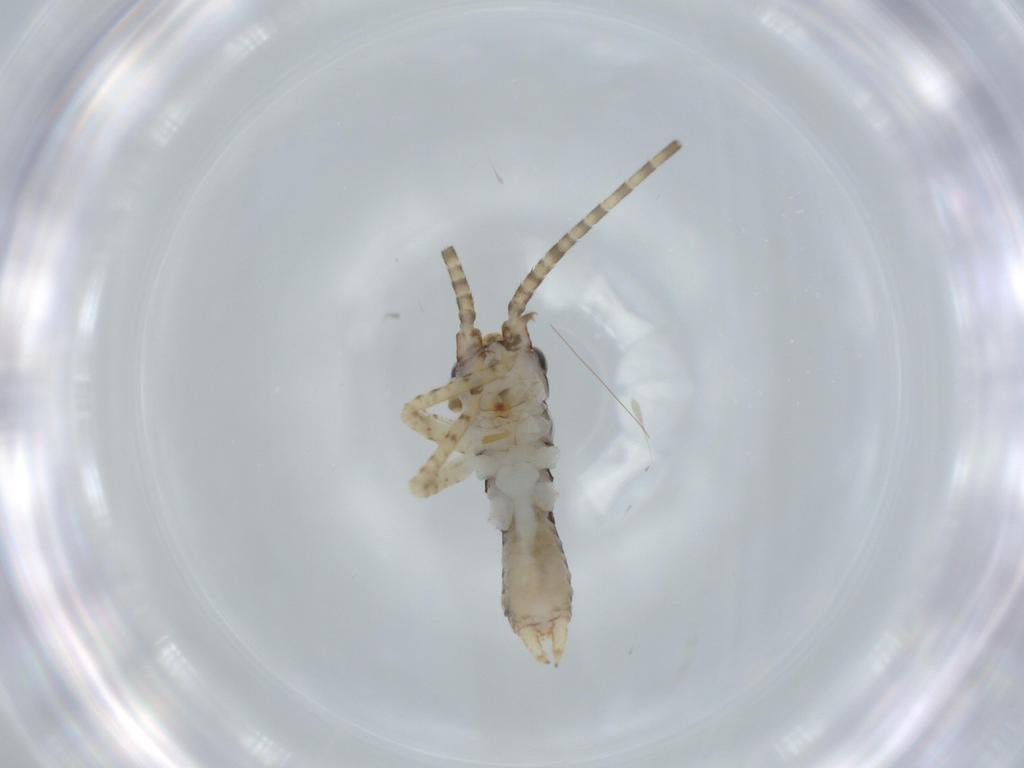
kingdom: Animalia
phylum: Arthropoda
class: Insecta
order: Orthoptera
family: Gryllidae
